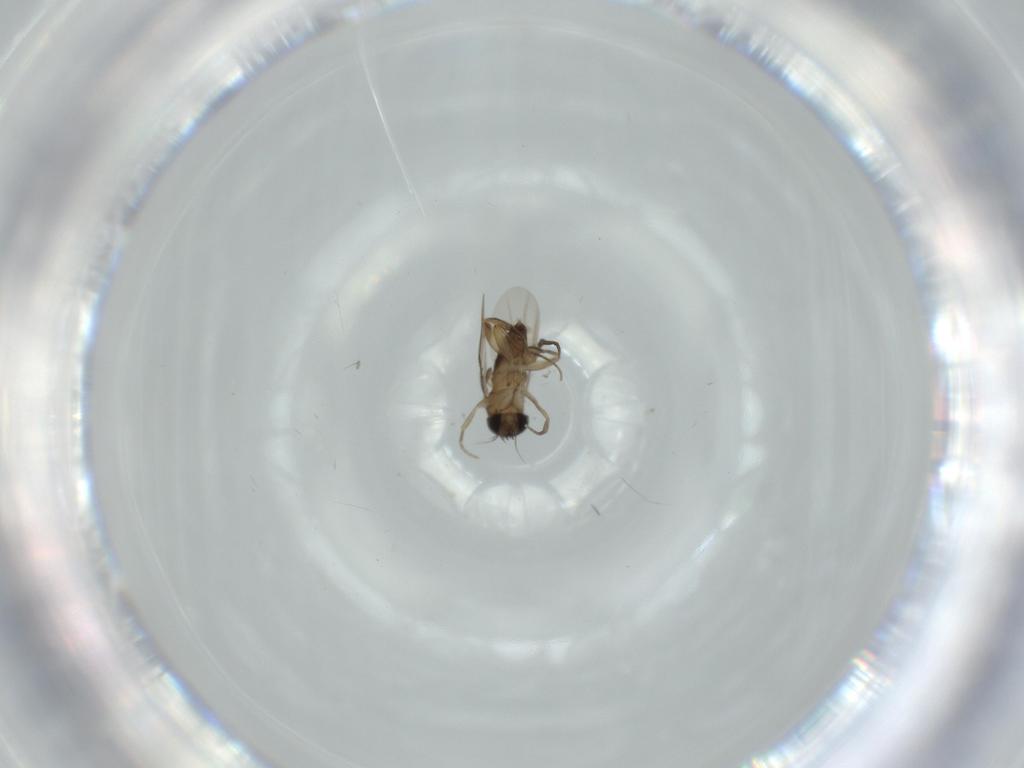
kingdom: Animalia
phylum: Arthropoda
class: Insecta
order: Diptera
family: Phoridae
